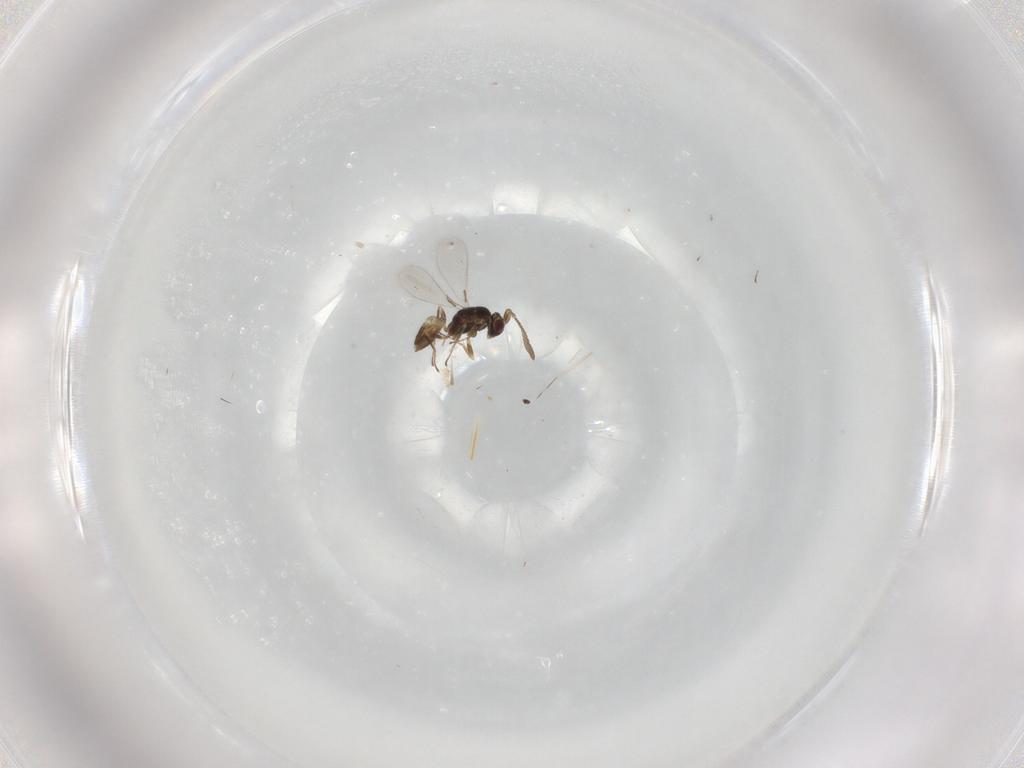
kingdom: Animalia
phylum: Arthropoda
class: Insecta
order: Hymenoptera
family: Mymaridae
